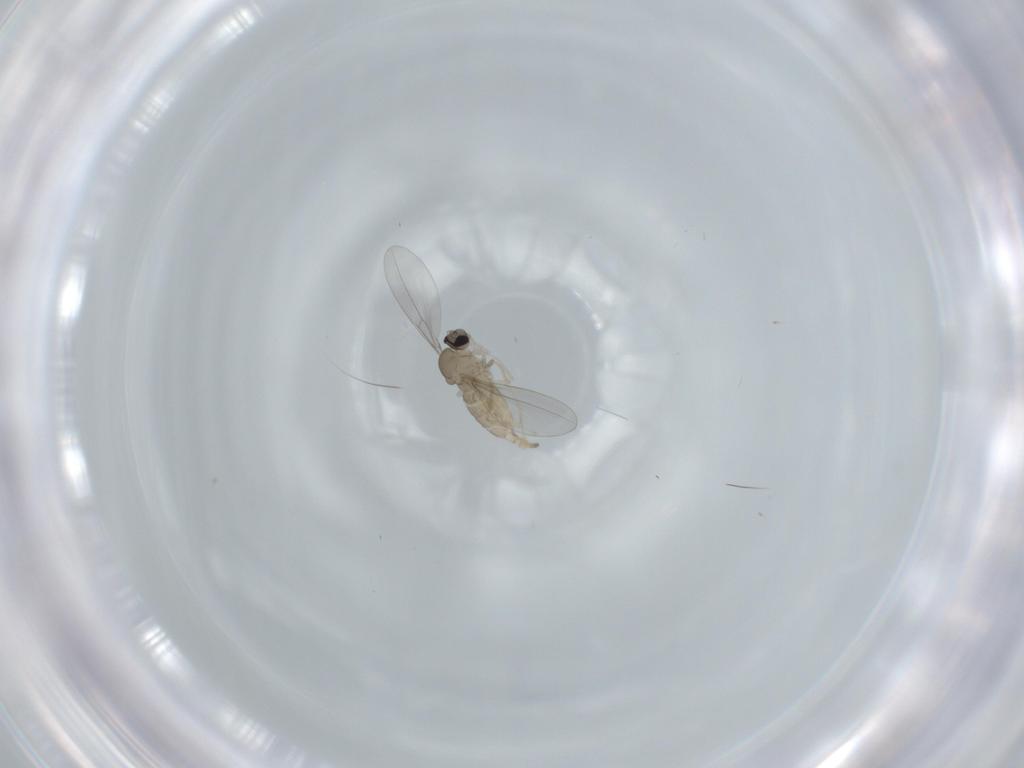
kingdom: Animalia
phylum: Arthropoda
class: Insecta
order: Diptera
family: Cecidomyiidae
